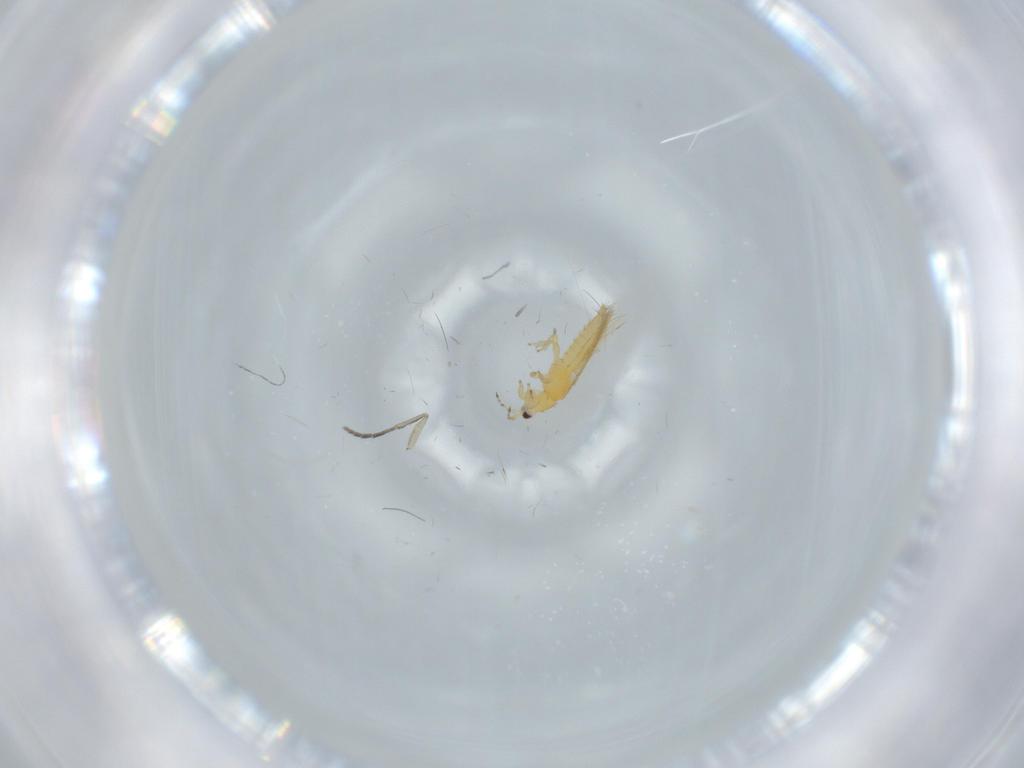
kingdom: Animalia
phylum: Arthropoda
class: Insecta
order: Thysanoptera
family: Thripidae
